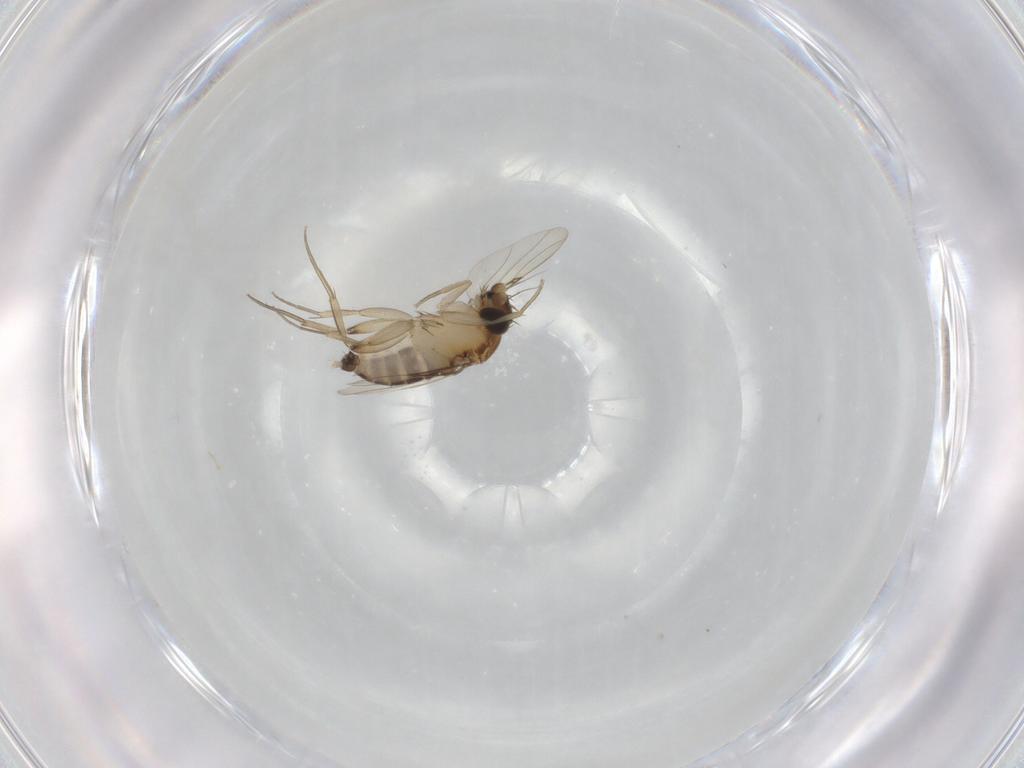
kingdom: Animalia
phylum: Arthropoda
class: Insecta
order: Diptera
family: Phoridae
